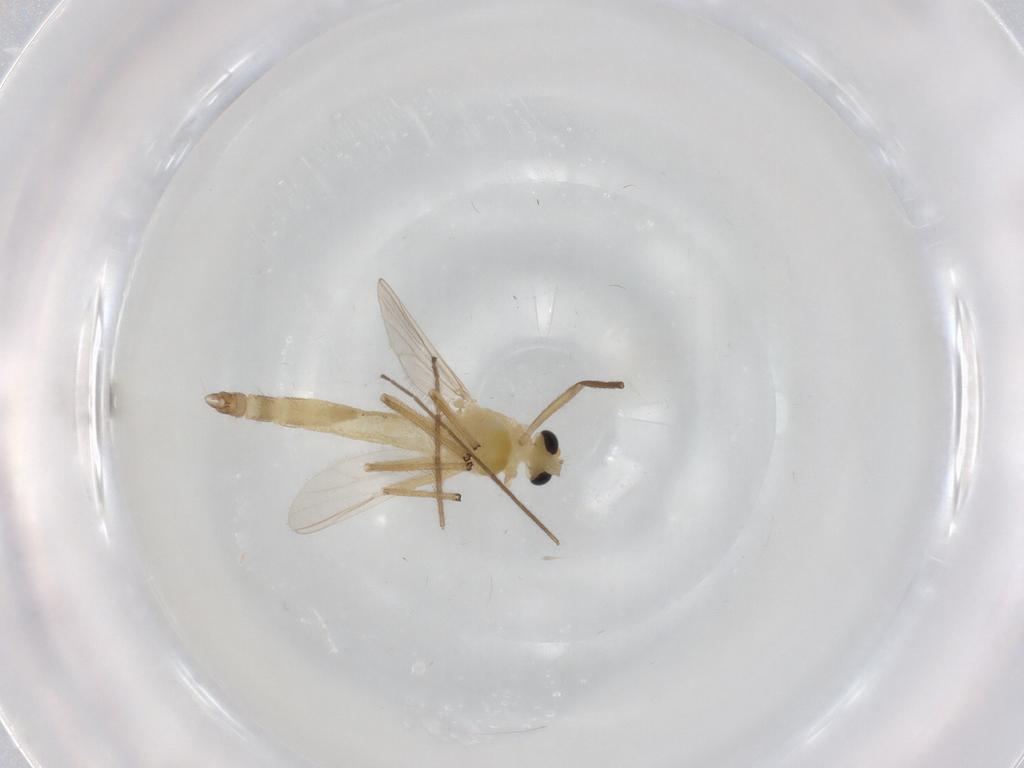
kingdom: Animalia
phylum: Arthropoda
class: Insecta
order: Diptera
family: Chironomidae
